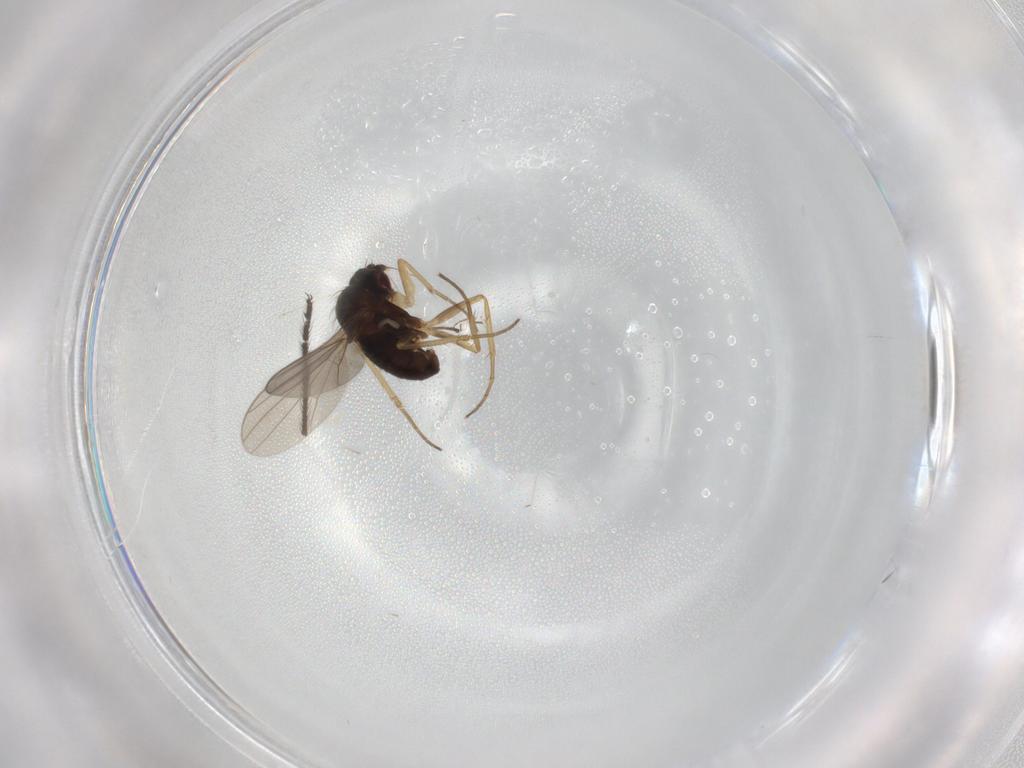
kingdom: Animalia
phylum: Arthropoda
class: Insecta
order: Diptera
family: Dolichopodidae
